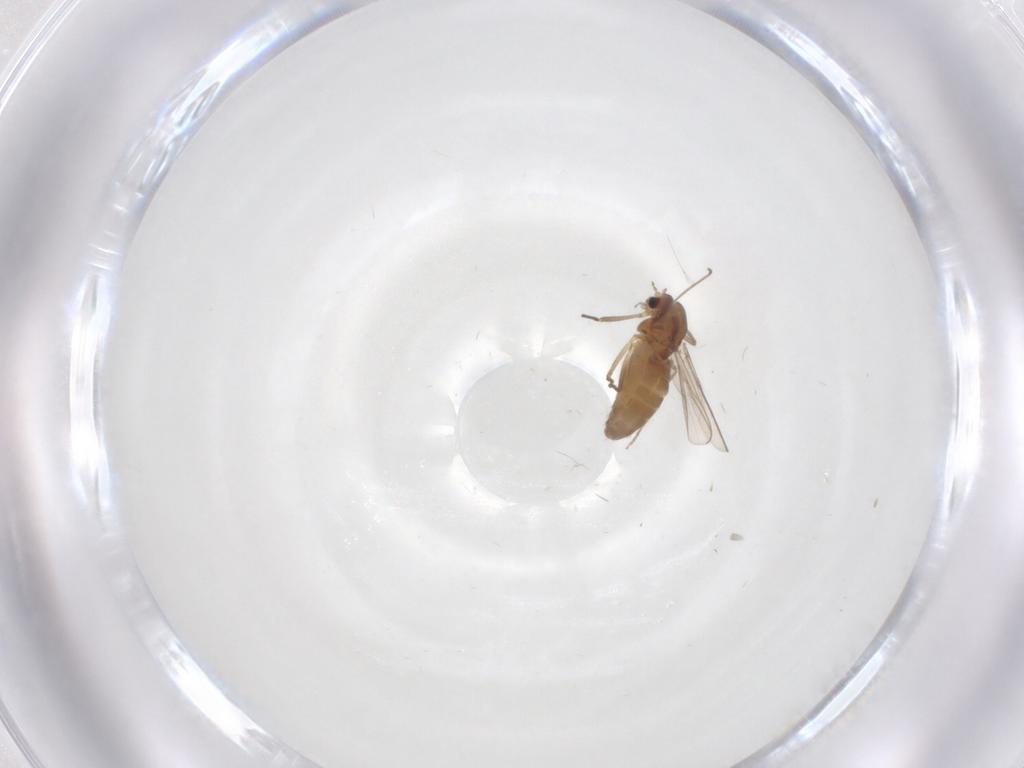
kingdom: Animalia
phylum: Arthropoda
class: Insecta
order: Diptera
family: Chironomidae
